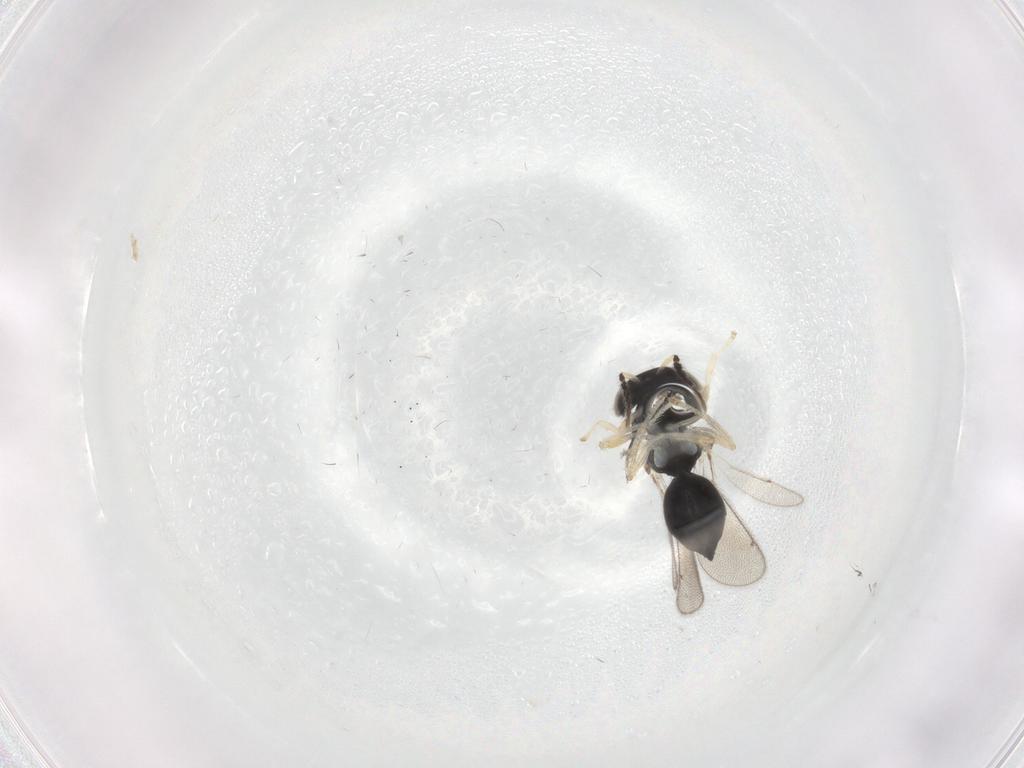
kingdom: Animalia
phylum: Arthropoda
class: Insecta
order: Hymenoptera
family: Eulophidae
